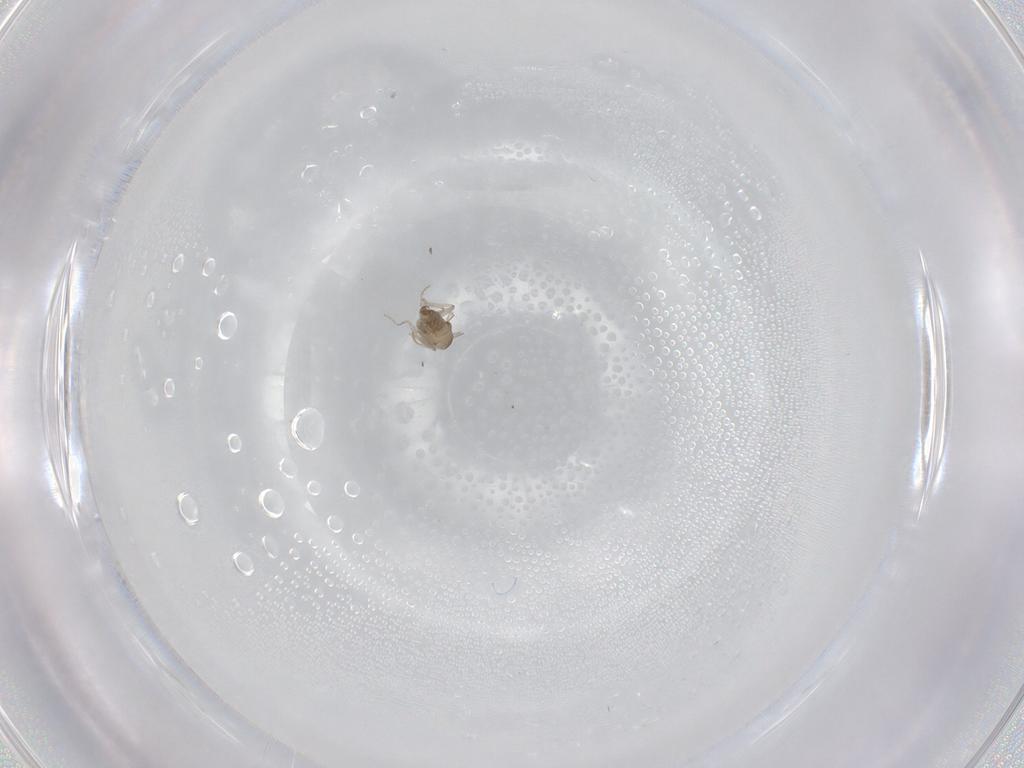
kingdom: Animalia
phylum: Arthropoda
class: Insecta
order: Diptera
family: Cecidomyiidae
